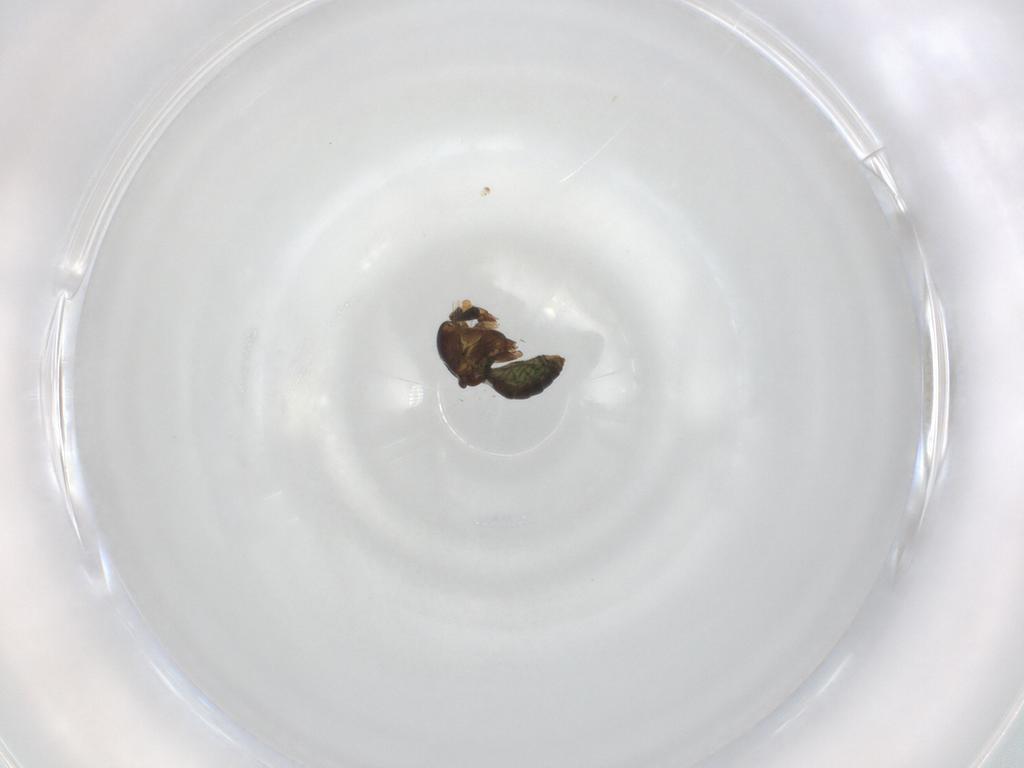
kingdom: Animalia
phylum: Arthropoda
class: Insecta
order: Diptera
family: Ceratopogonidae
